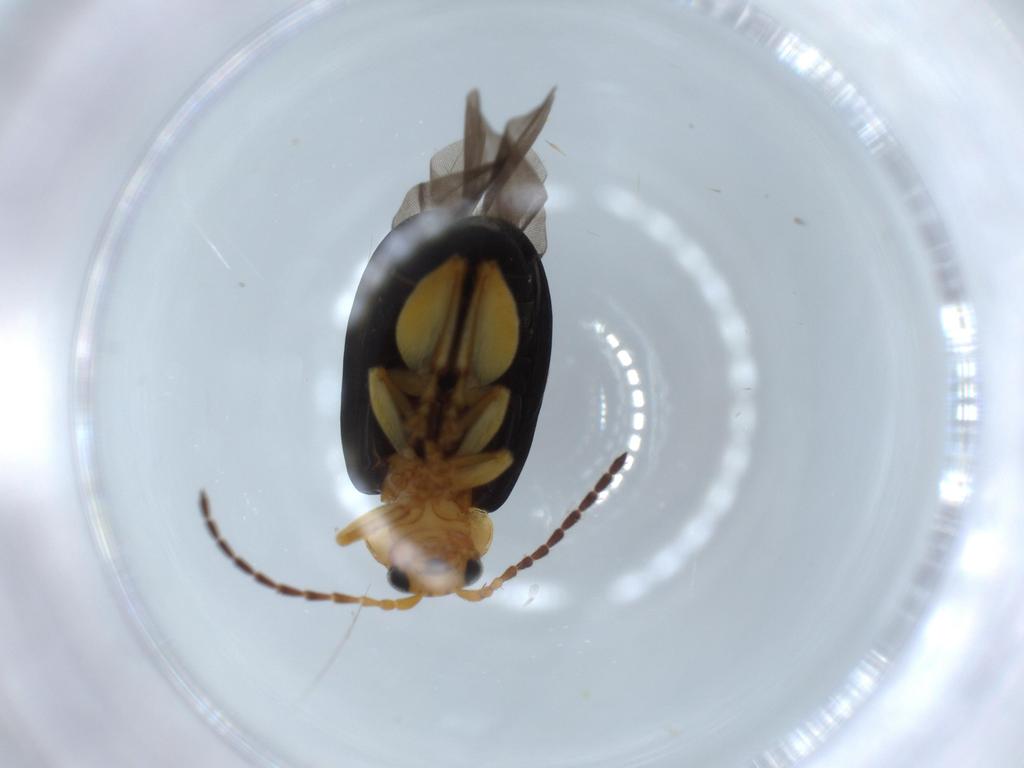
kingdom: Animalia
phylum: Arthropoda
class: Insecta
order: Coleoptera
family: Chrysomelidae
